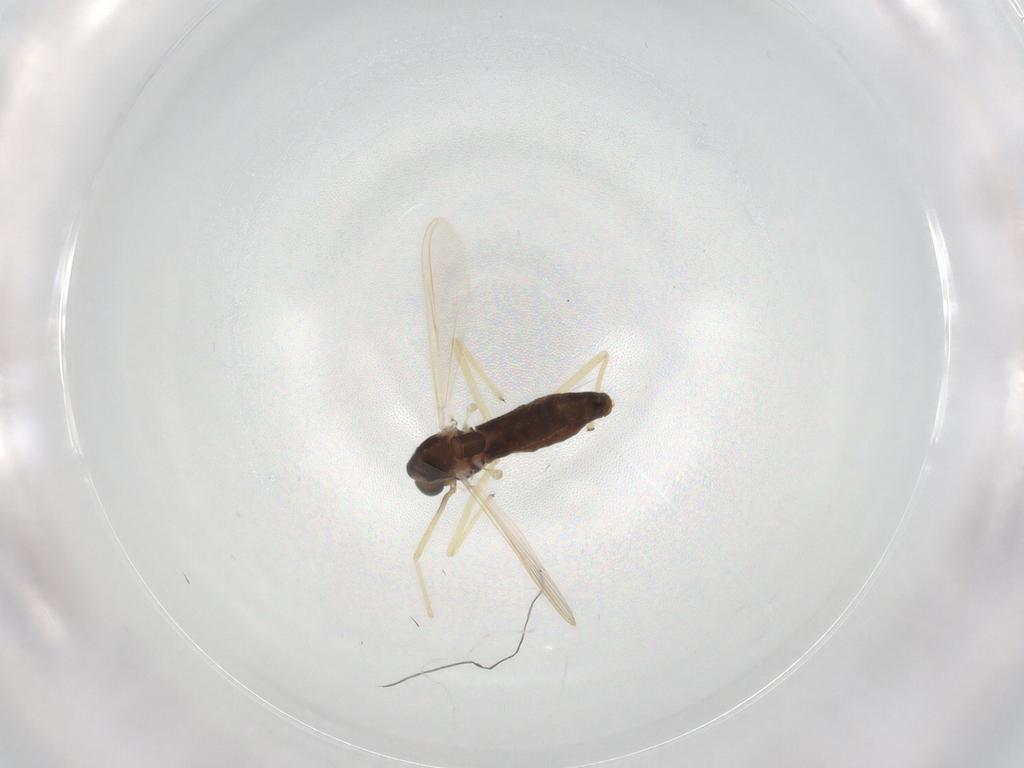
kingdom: Animalia
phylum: Arthropoda
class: Insecta
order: Diptera
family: Chironomidae
